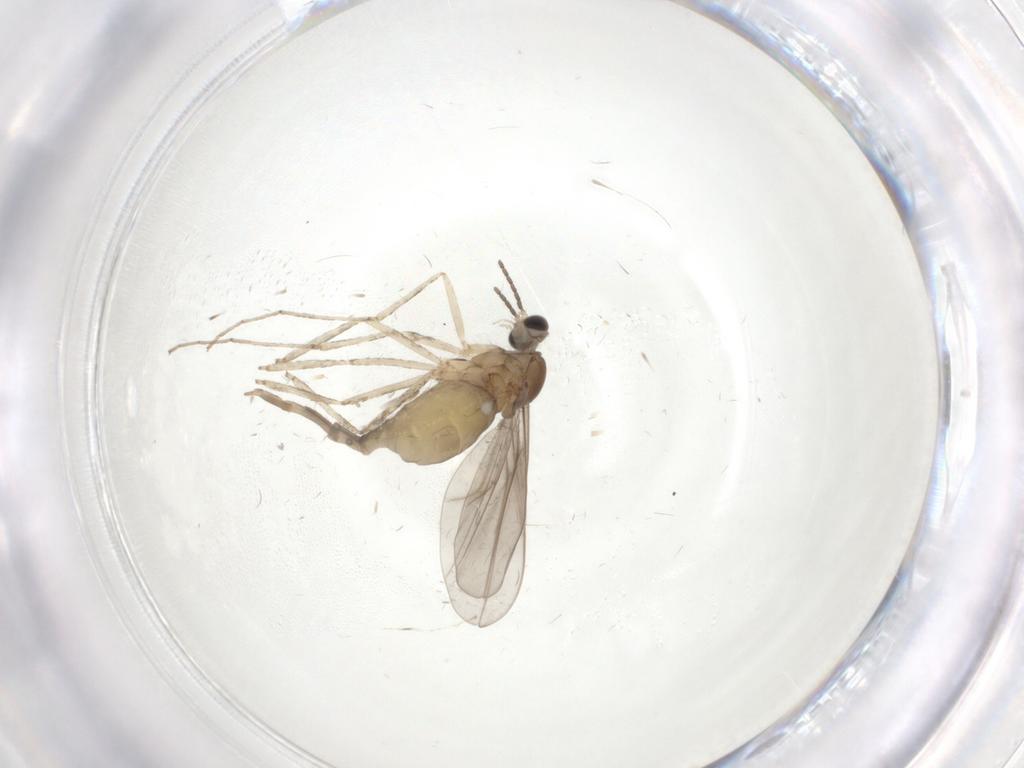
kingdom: Animalia
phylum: Arthropoda
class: Insecta
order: Diptera
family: Cecidomyiidae
